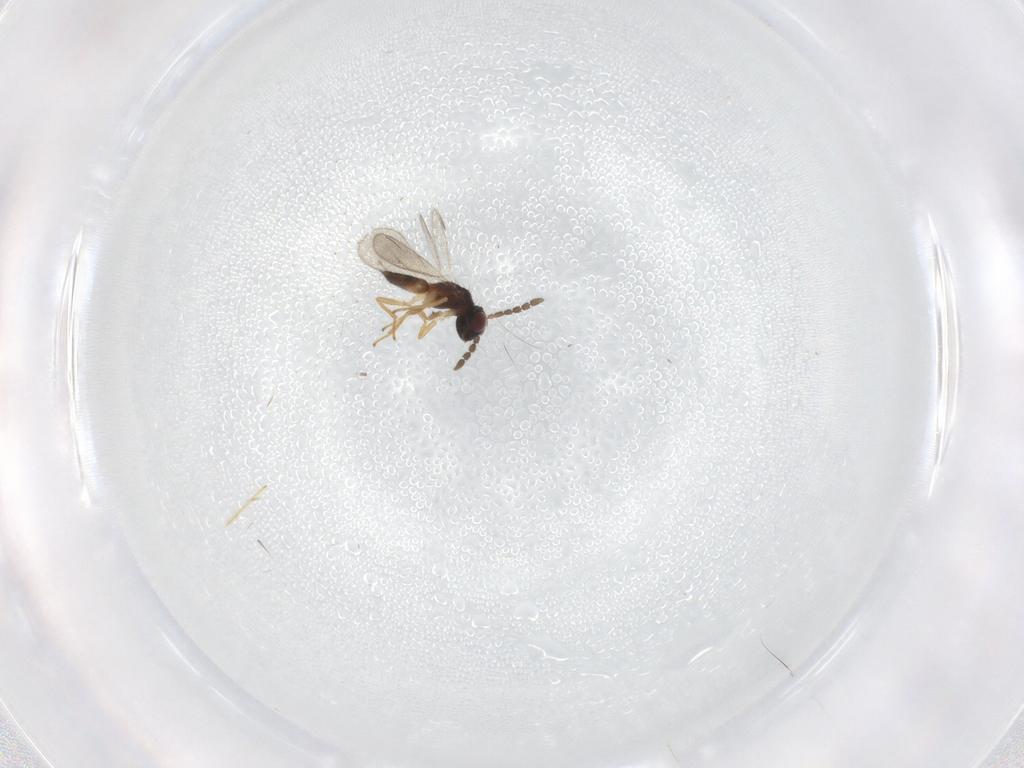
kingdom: Animalia
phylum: Arthropoda
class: Insecta
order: Hymenoptera
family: Eulophidae
